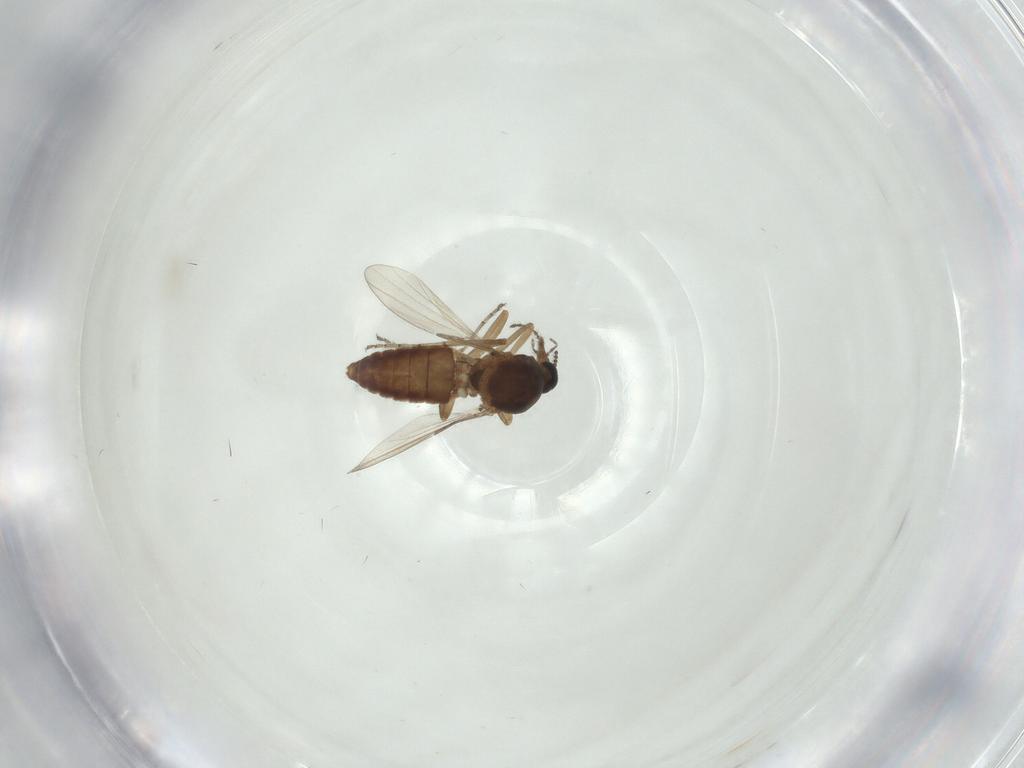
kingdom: Animalia
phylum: Arthropoda
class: Insecta
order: Diptera
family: Ceratopogonidae
